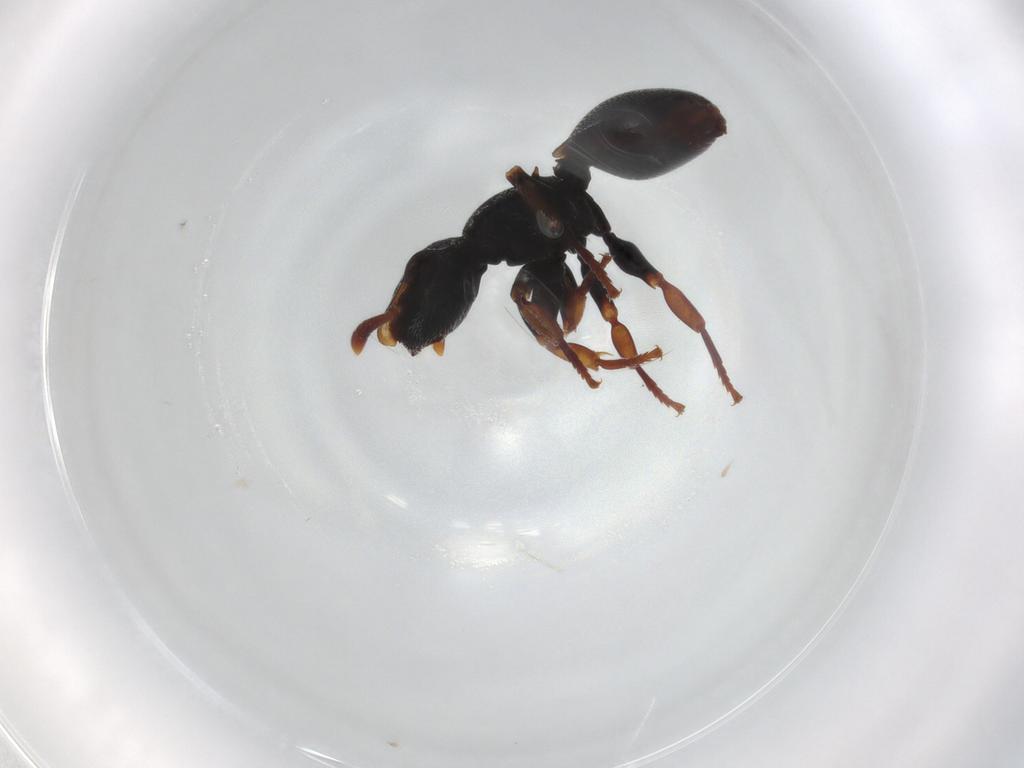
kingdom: Animalia
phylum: Arthropoda
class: Insecta
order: Hymenoptera
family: Formicidae
